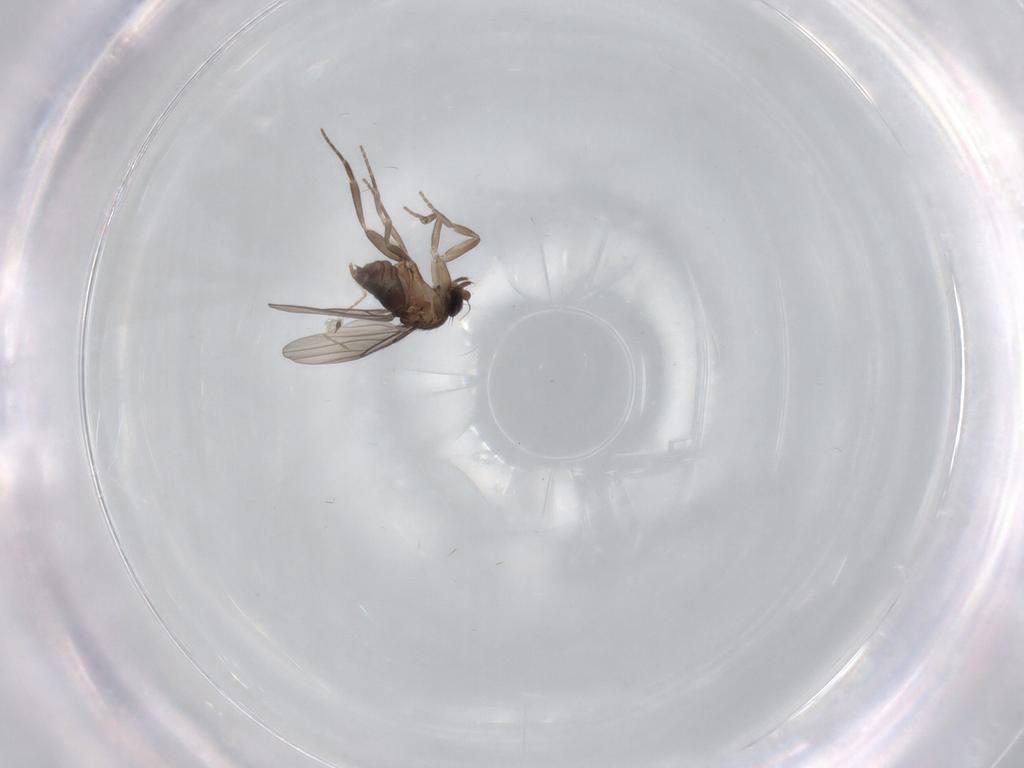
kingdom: Animalia
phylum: Arthropoda
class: Insecta
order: Diptera
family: Ceratopogonidae
